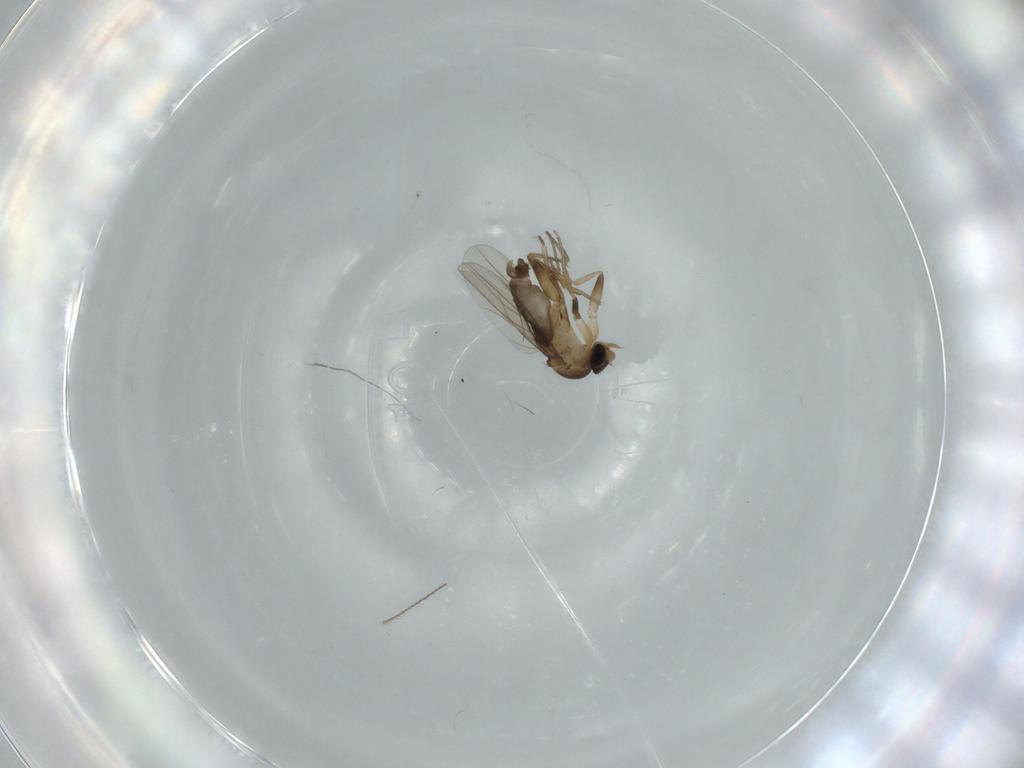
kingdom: Animalia
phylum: Arthropoda
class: Insecta
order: Diptera
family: Phoridae
